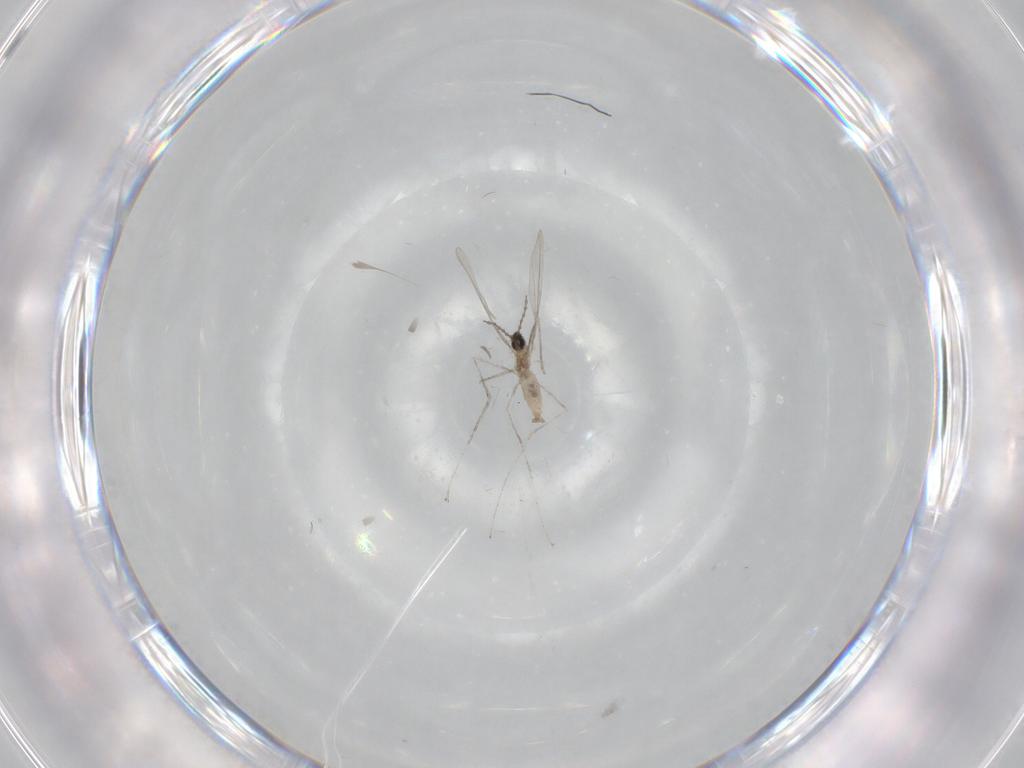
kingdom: Animalia
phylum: Arthropoda
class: Insecta
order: Diptera
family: Cecidomyiidae
